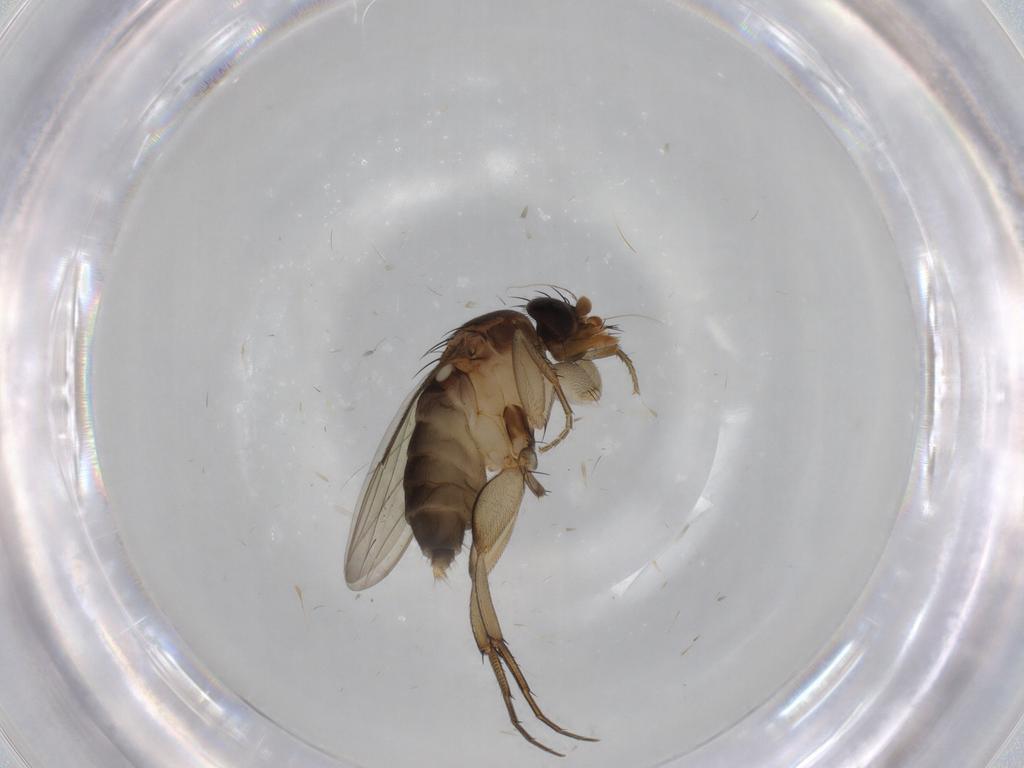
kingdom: Animalia
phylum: Arthropoda
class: Insecta
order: Diptera
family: Phoridae
